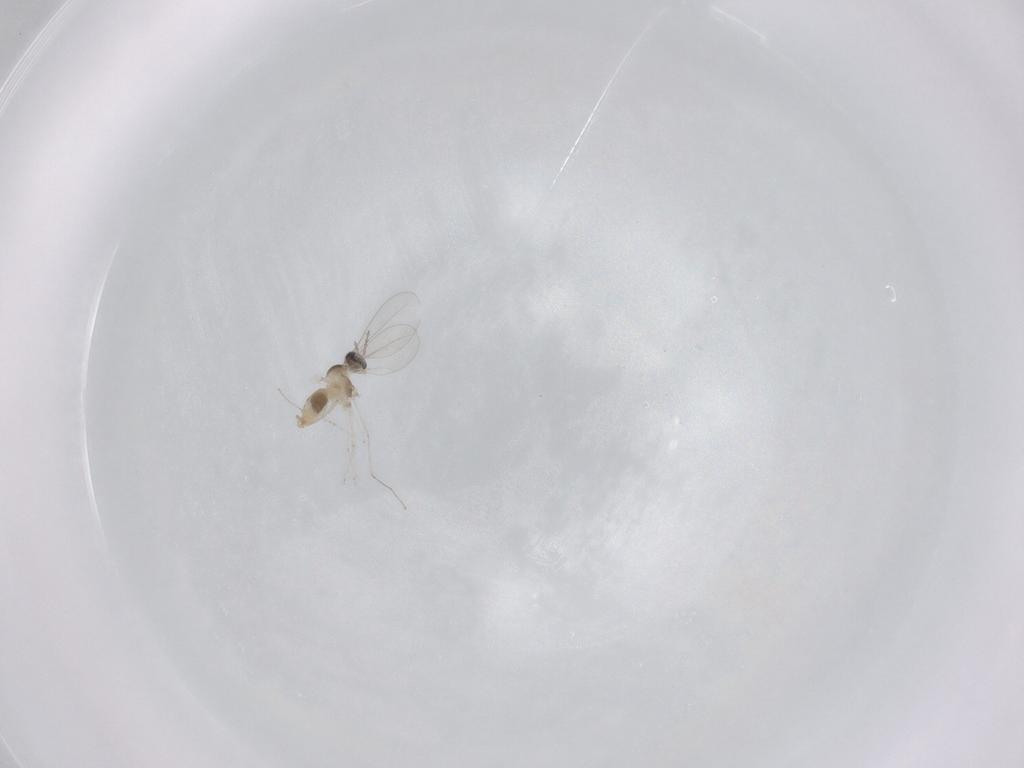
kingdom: Animalia
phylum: Arthropoda
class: Insecta
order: Diptera
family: Cecidomyiidae
